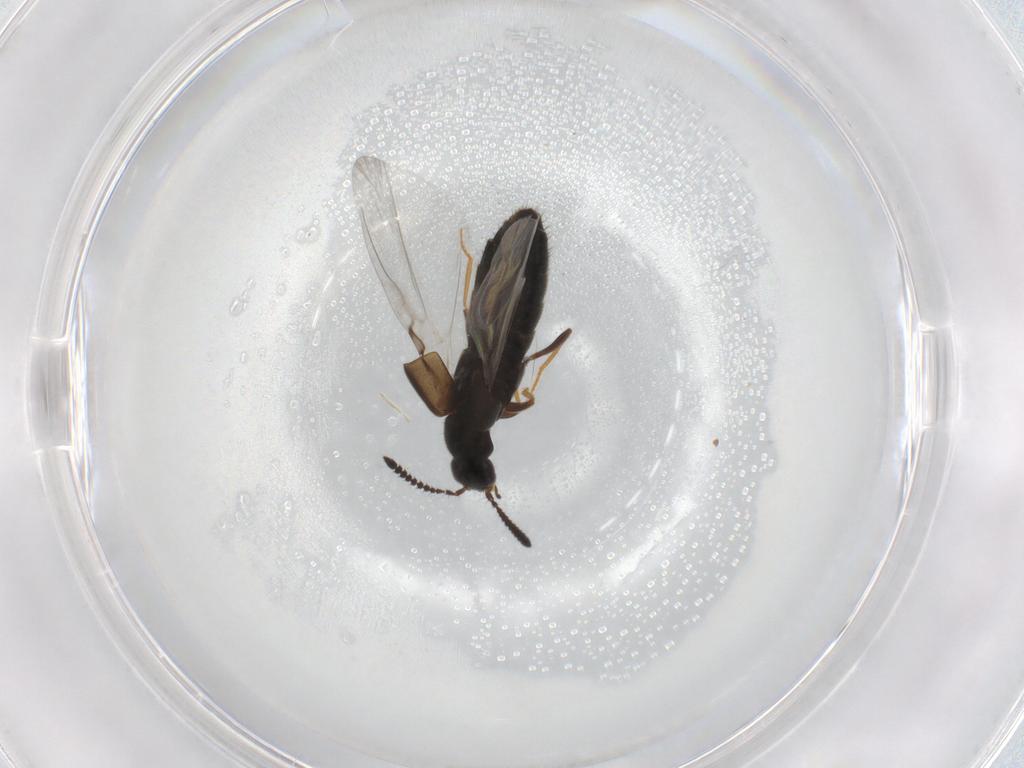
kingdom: Animalia
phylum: Arthropoda
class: Insecta
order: Coleoptera
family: Staphylinidae
